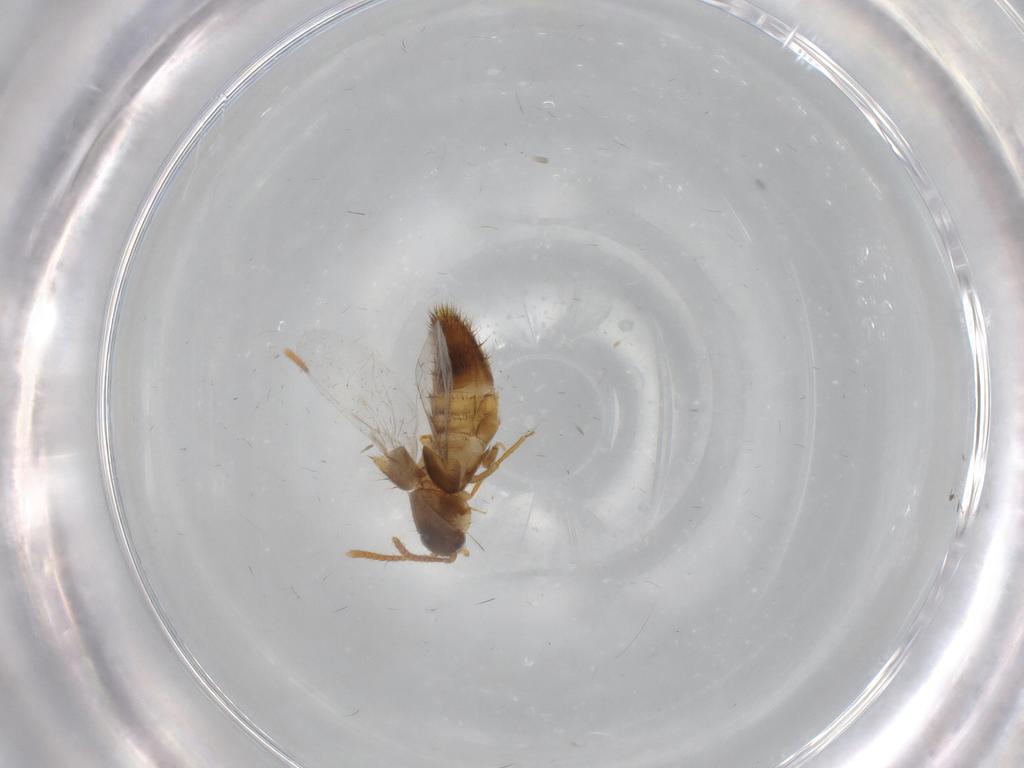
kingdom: Animalia
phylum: Arthropoda
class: Insecta
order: Coleoptera
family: Staphylinidae
